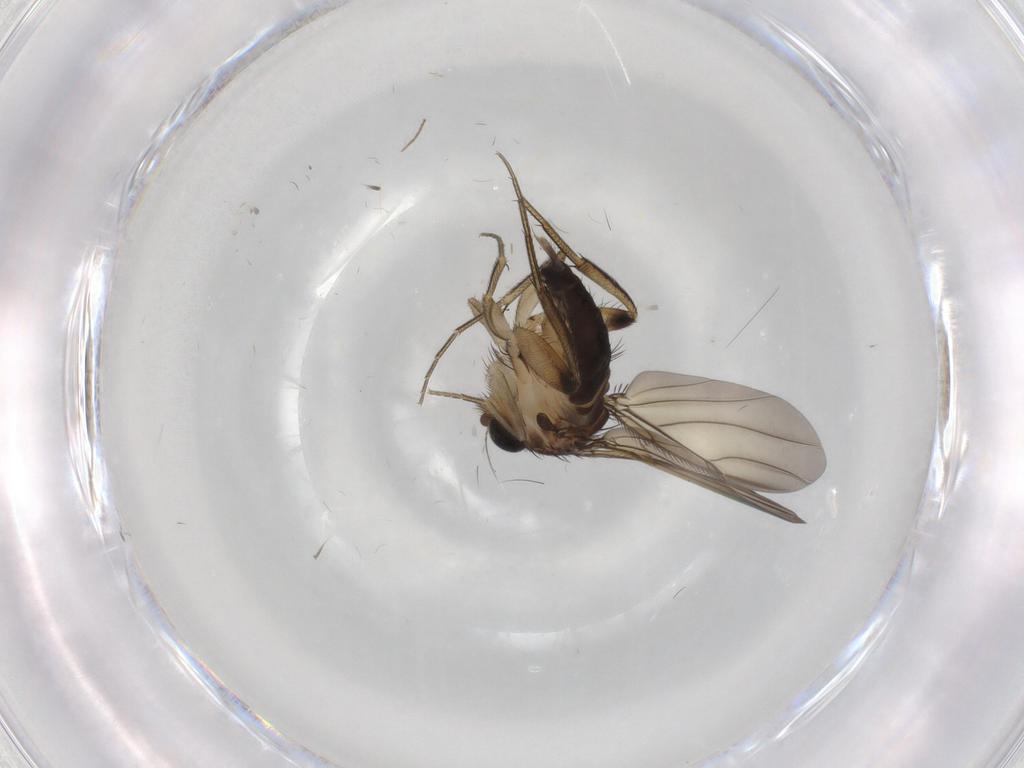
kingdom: Animalia
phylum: Arthropoda
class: Insecta
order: Diptera
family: Chironomidae
